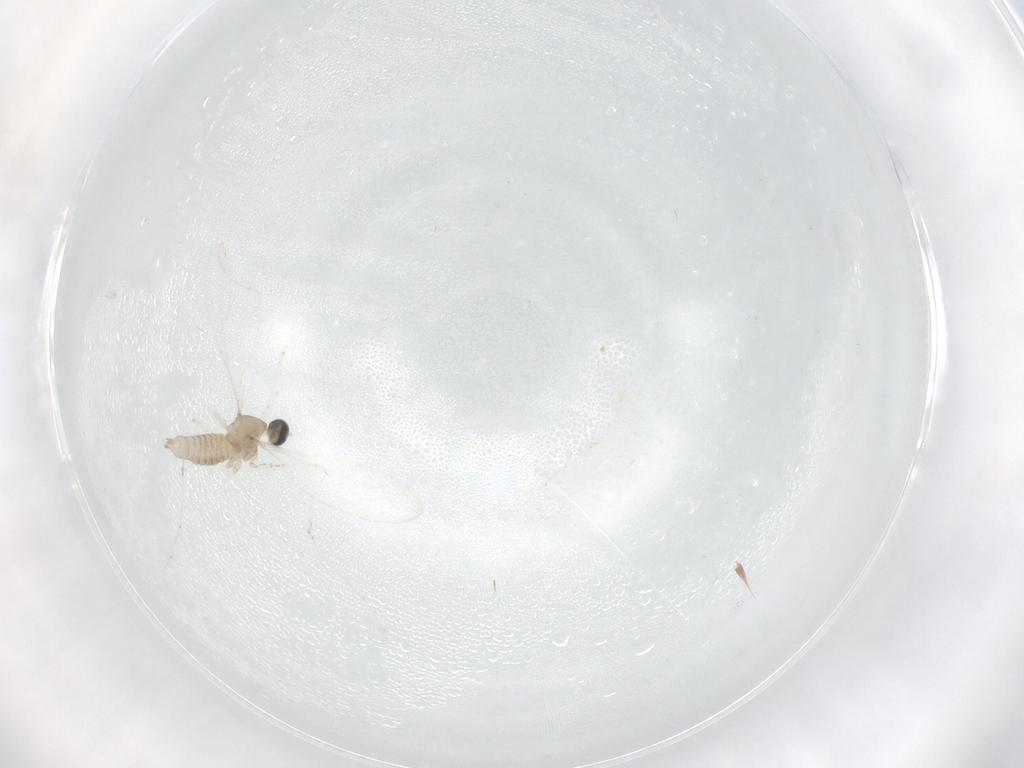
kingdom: Animalia
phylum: Arthropoda
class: Insecta
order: Diptera
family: Cecidomyiidae
